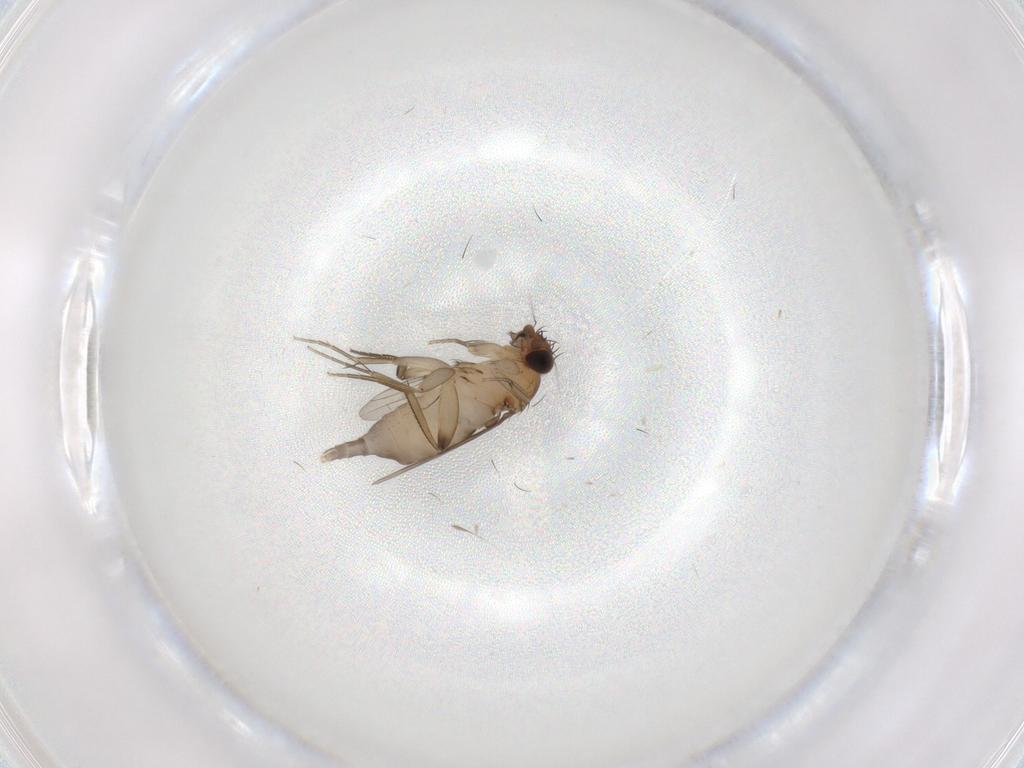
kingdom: Animalia
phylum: Arthropoda
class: Insecta
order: Diptera
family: Phoridae
